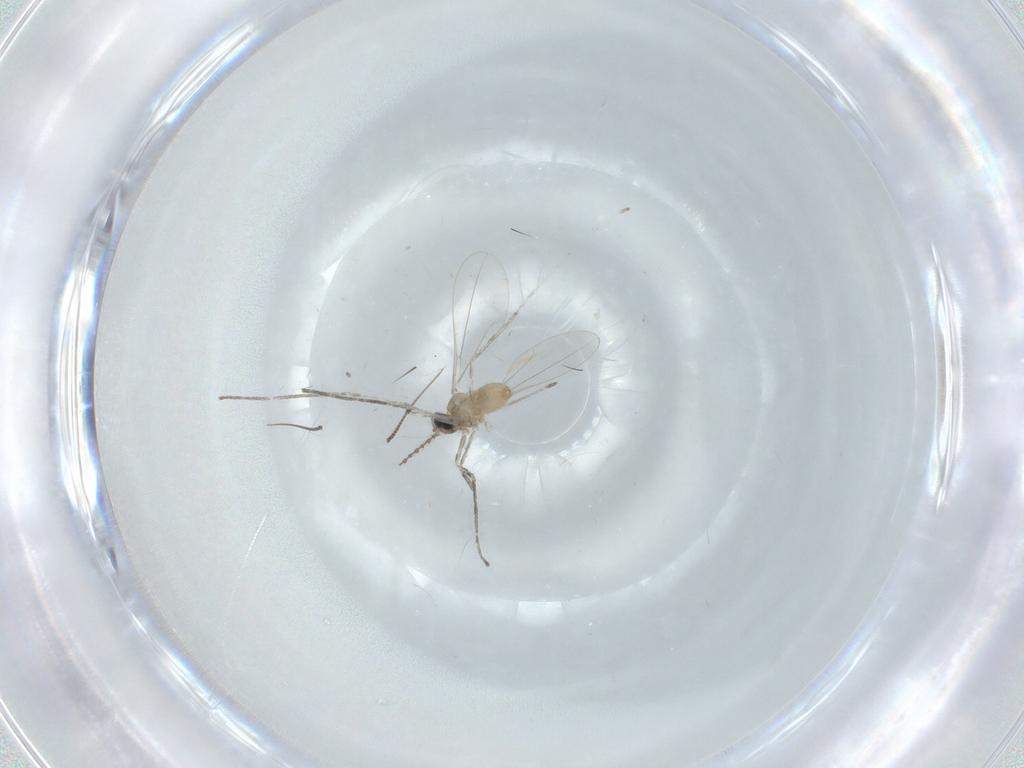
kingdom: Animalia
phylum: Arthropoda
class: Insecta
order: Diptera
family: Cecidomyiidae
